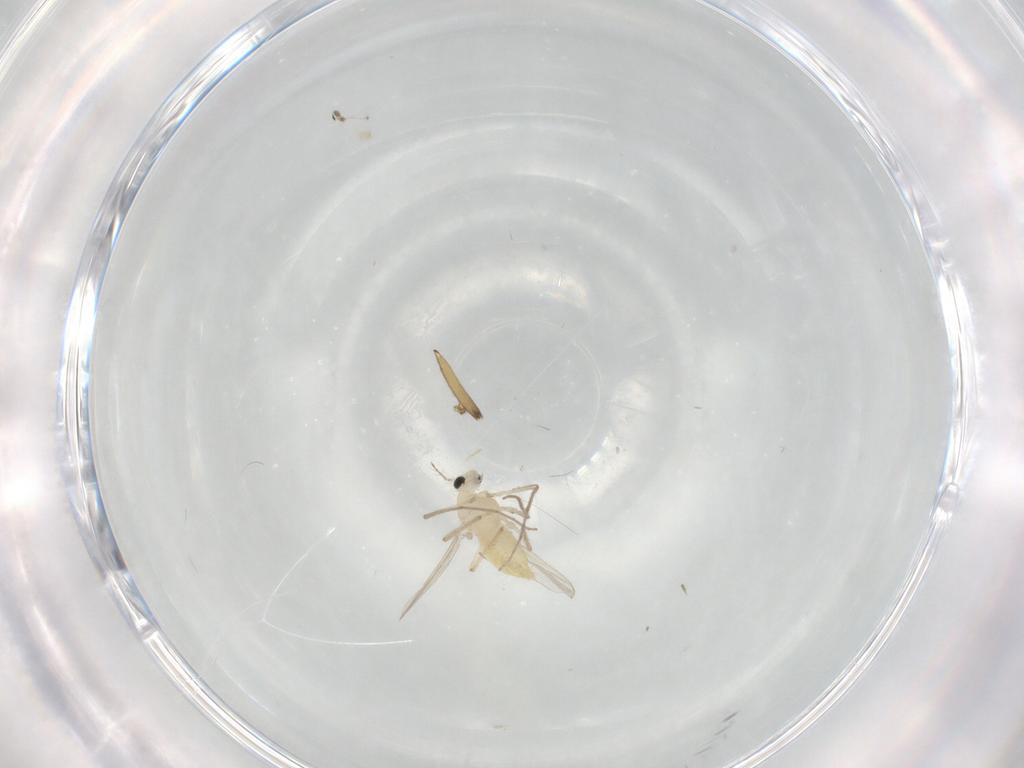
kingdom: Animalia
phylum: Arthropoda
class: Insecta
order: Diptera
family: Chironomidae
